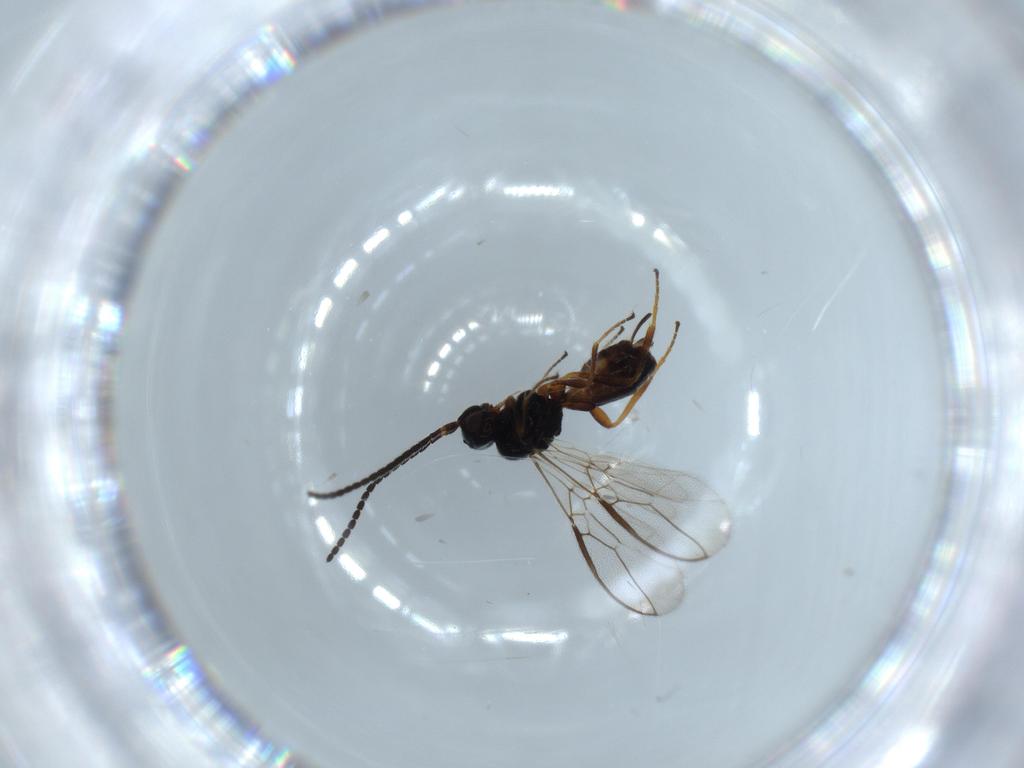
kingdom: Animalia
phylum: Arthropoda
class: Insecta
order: Hymenoptera
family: Braconidae
